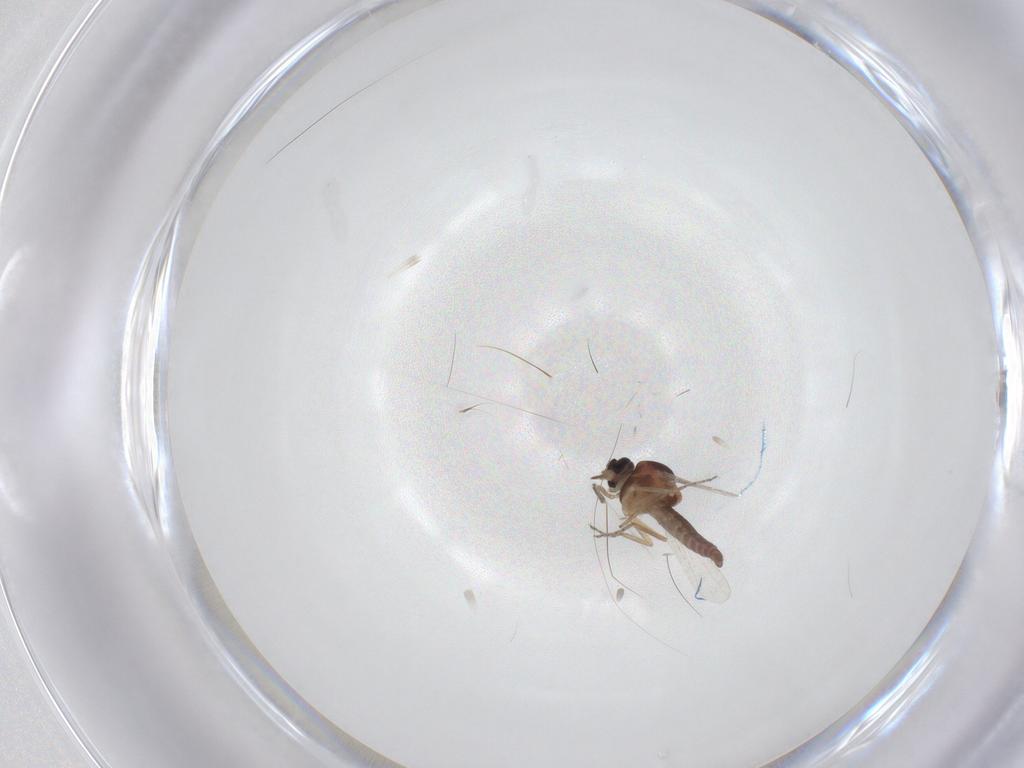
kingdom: Animalia
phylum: Arthropoda
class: Insecta
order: Diptera
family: Ceratopogonidae
